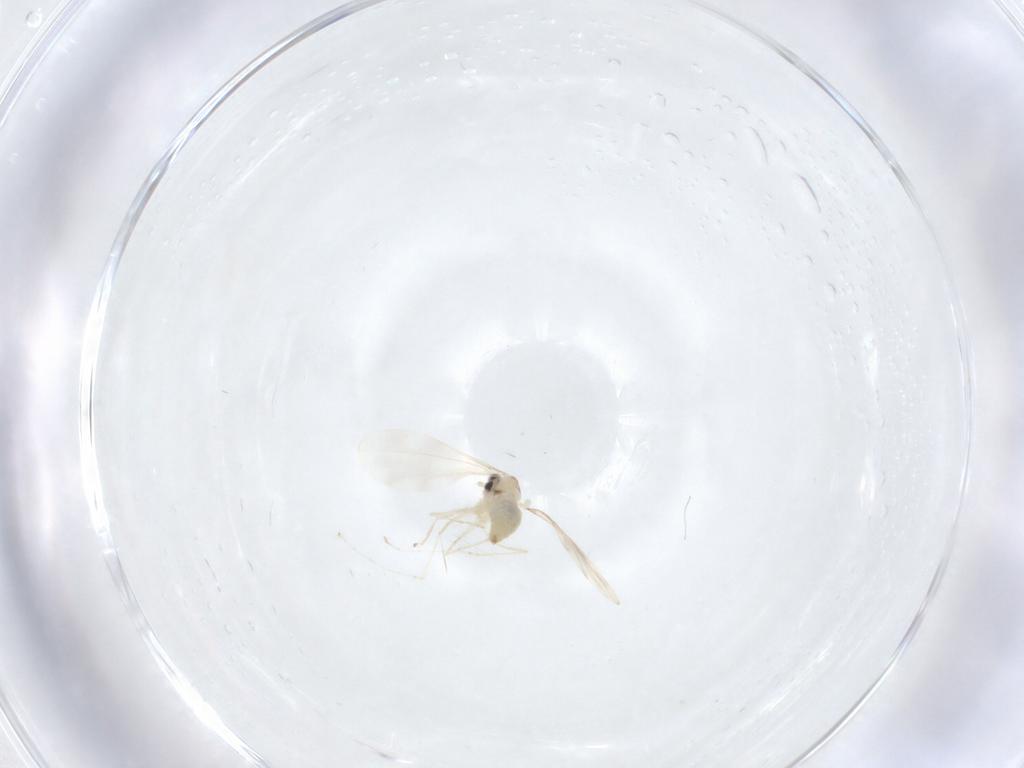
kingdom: Animalia
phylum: Arthropoda
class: Insecta
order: Diptera
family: Cecidomyiidae
